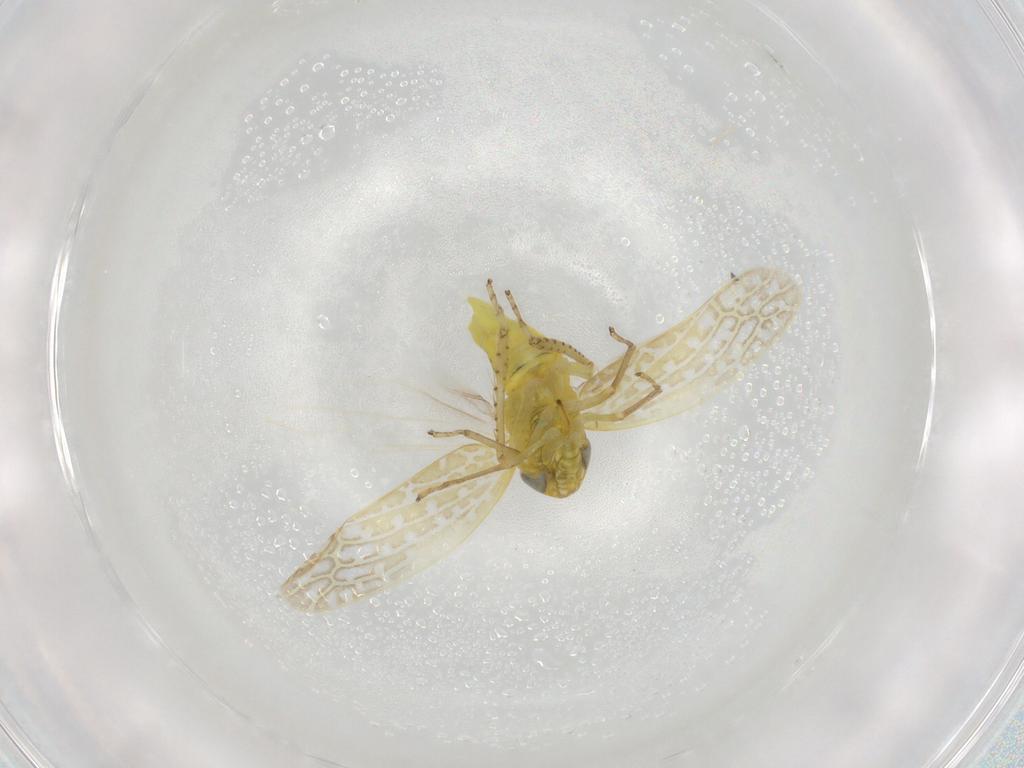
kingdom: Animalia
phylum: Arthropoda
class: Insecta
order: Hemiptera
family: Cicadellidae
